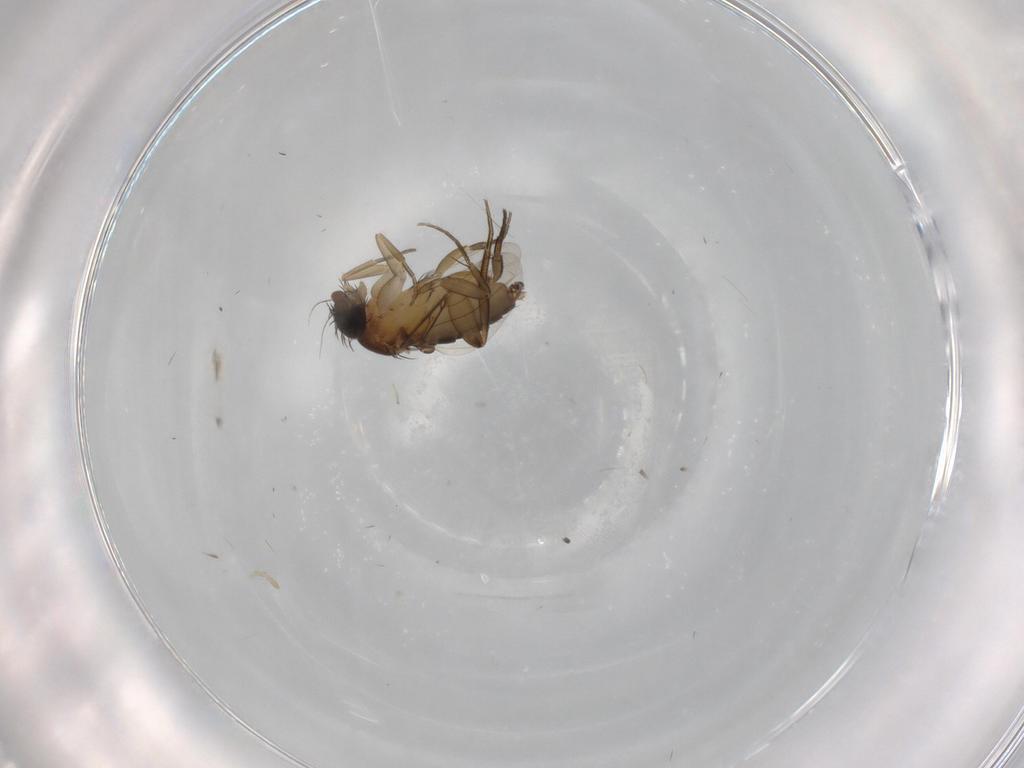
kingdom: Animalia
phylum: Arthropoda
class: Insecta
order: Diptera
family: Phoridae
